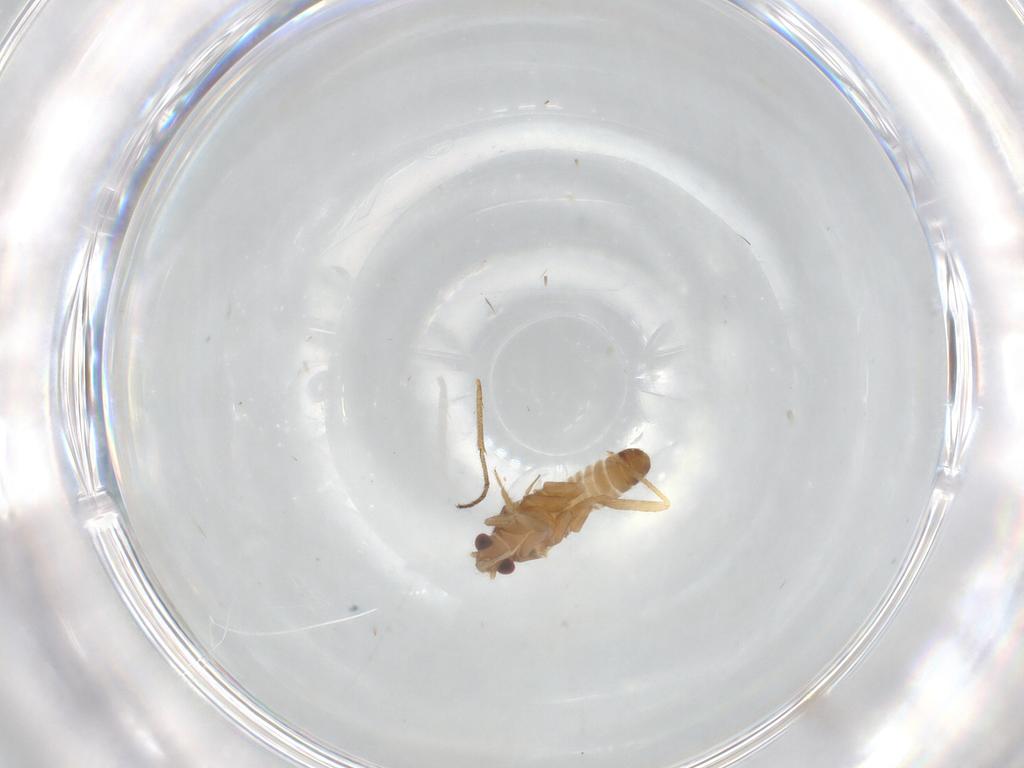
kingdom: Animalia
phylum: Arthropoda
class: Insecta
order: Hemiptera
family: Ceratocombidae
